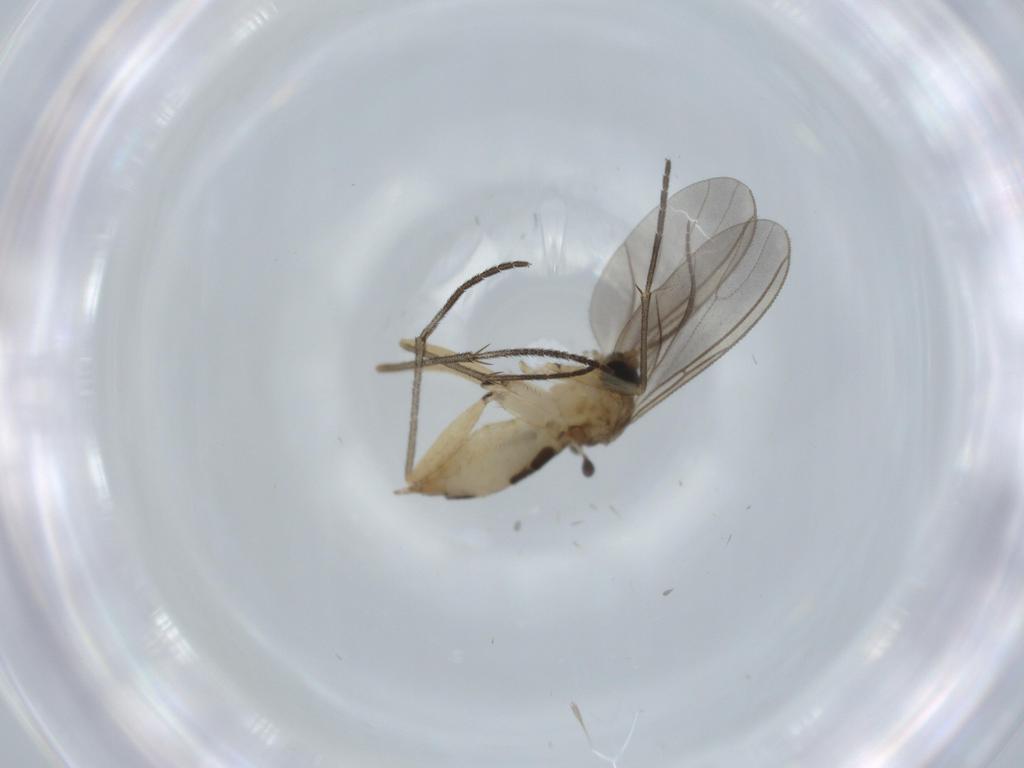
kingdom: Animalia
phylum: Arthropoda
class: Insecta
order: Diptera
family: Sciaridae
